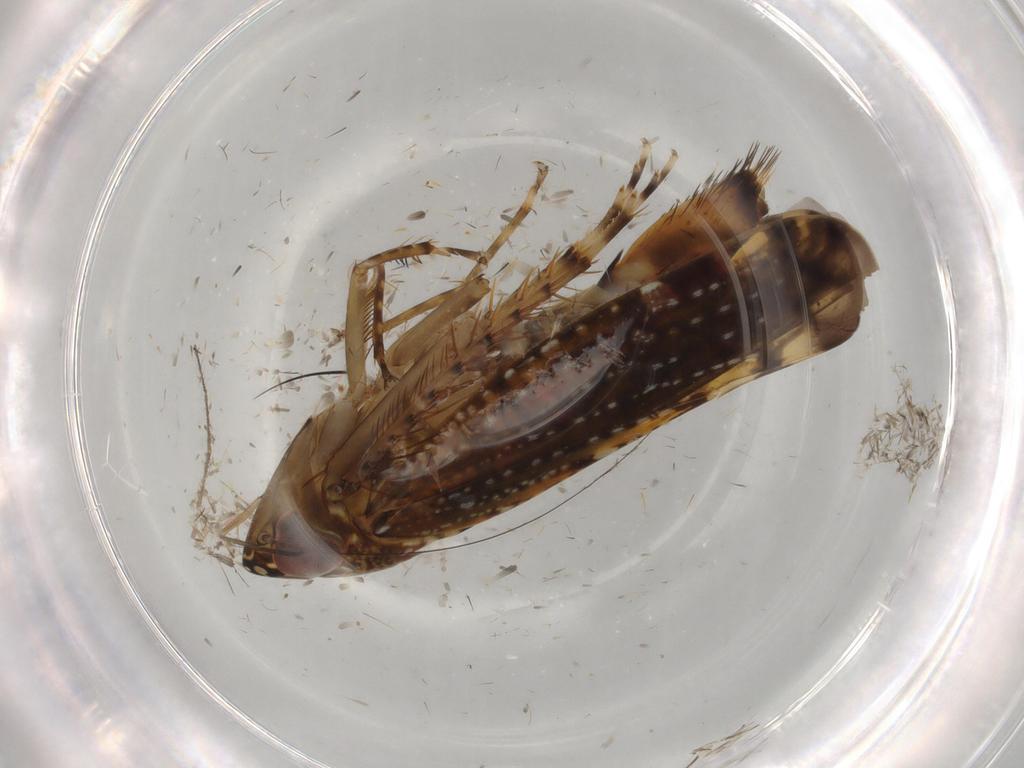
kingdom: Animalia
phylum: Arthropoda
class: Insecta
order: Hemiptera
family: Cicadellidae
